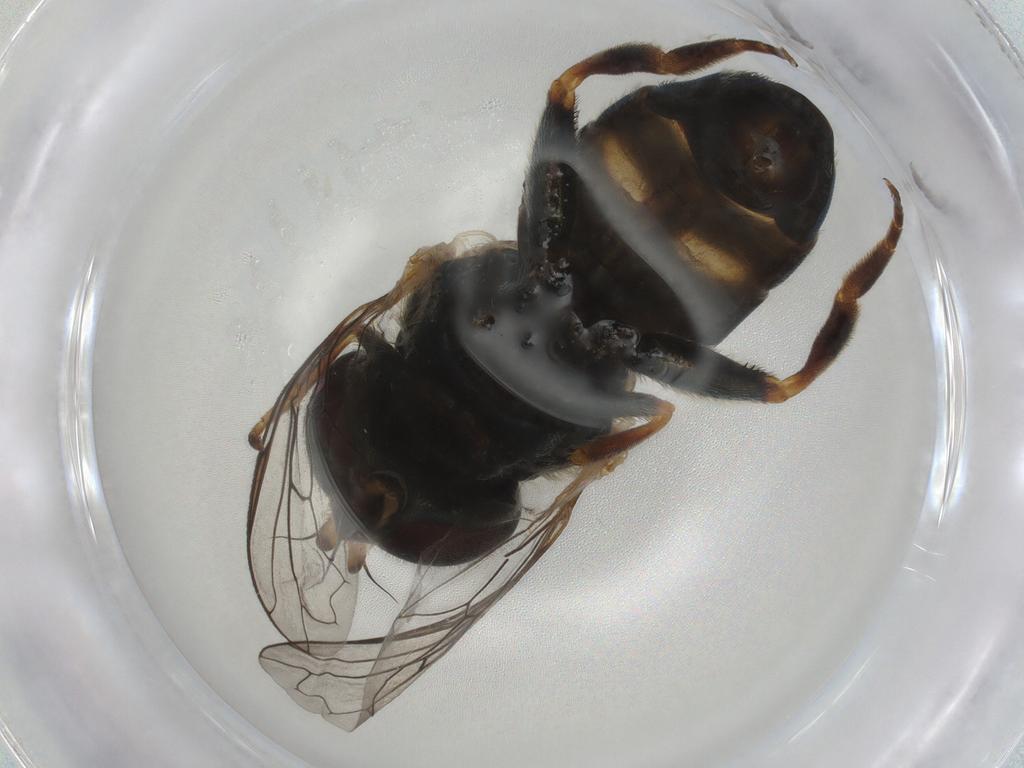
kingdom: Animalia
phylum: Arthropoda
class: Insecta
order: Diptera
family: Syrphidae
